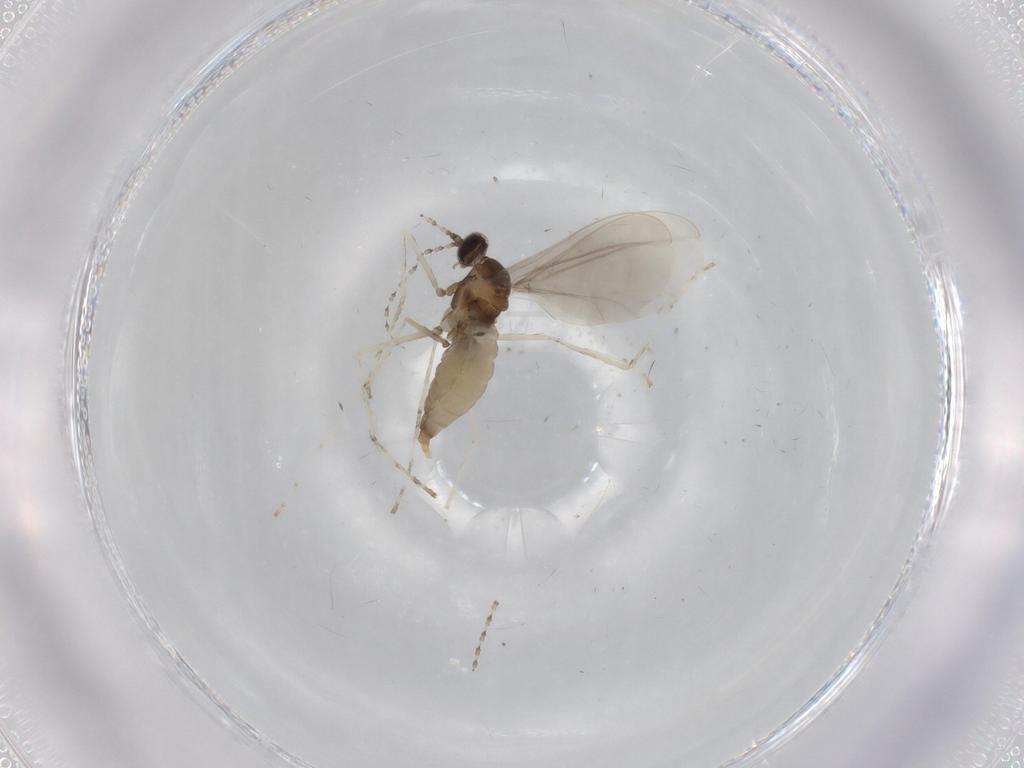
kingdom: Animalia
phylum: Arthropoda
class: Insecta
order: Diptera
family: Cecidomyiidae
